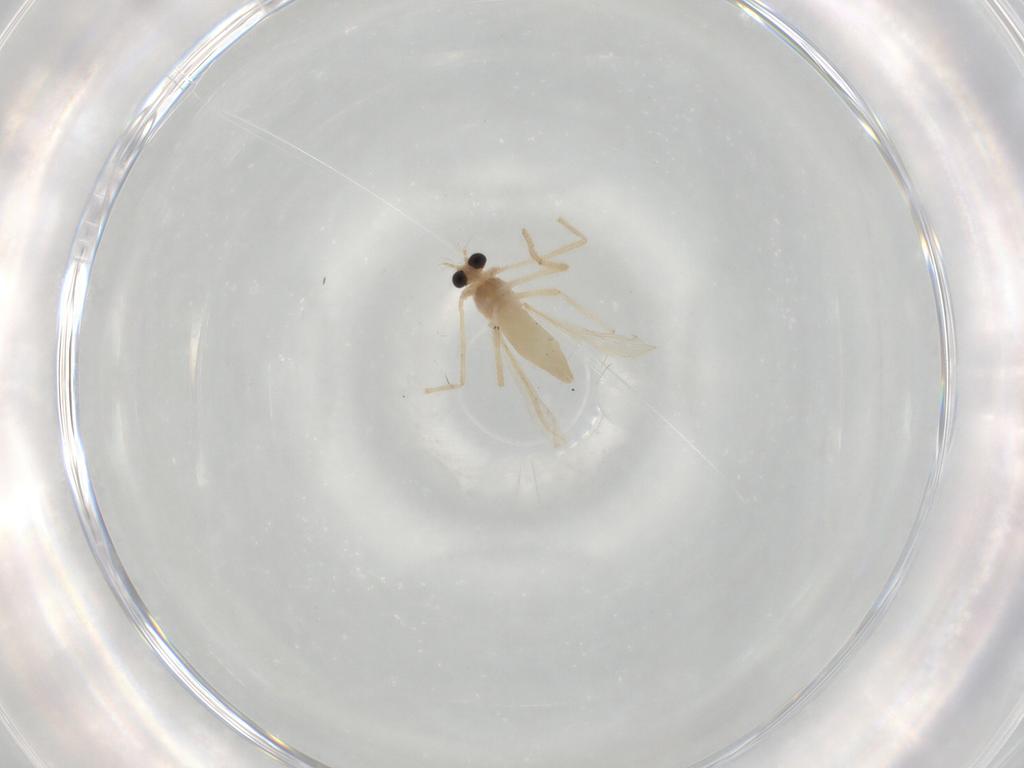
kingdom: Animalia
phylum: Arthropoda
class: Insecta
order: Diptera
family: Chironomidae
